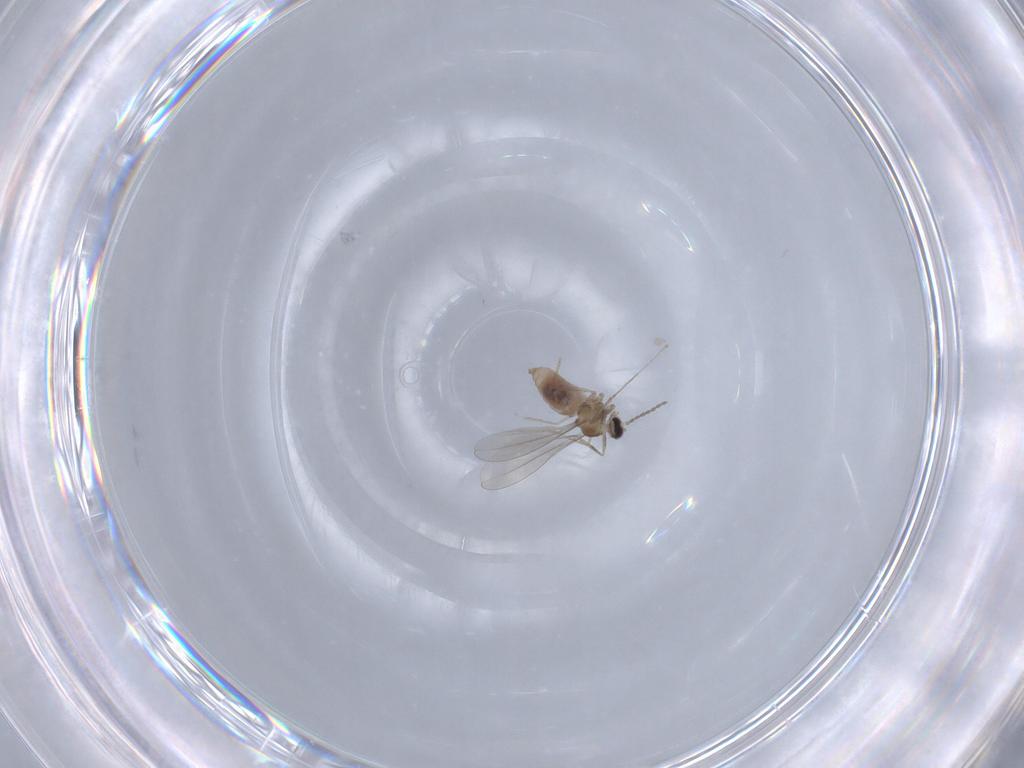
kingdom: Animalia
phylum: Arthropoda
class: Insecta
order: Diptera
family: Cecidomyiidae
